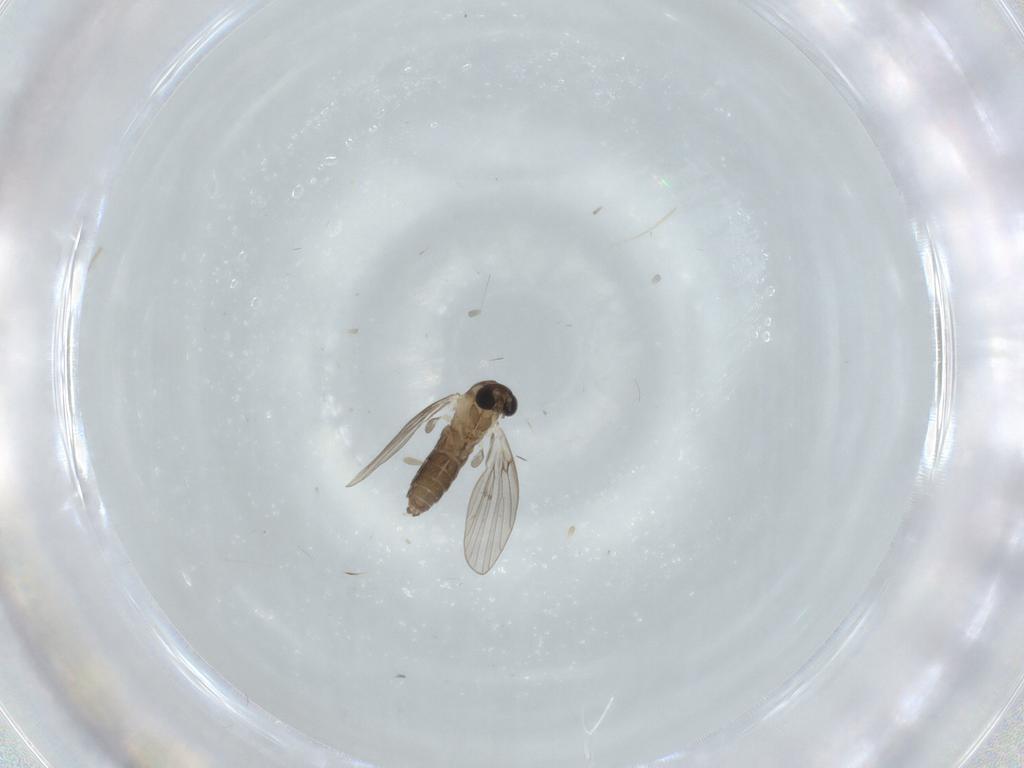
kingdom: Animalia
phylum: Arthropoda
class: Insecta
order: Diptera
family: Psychodidae
